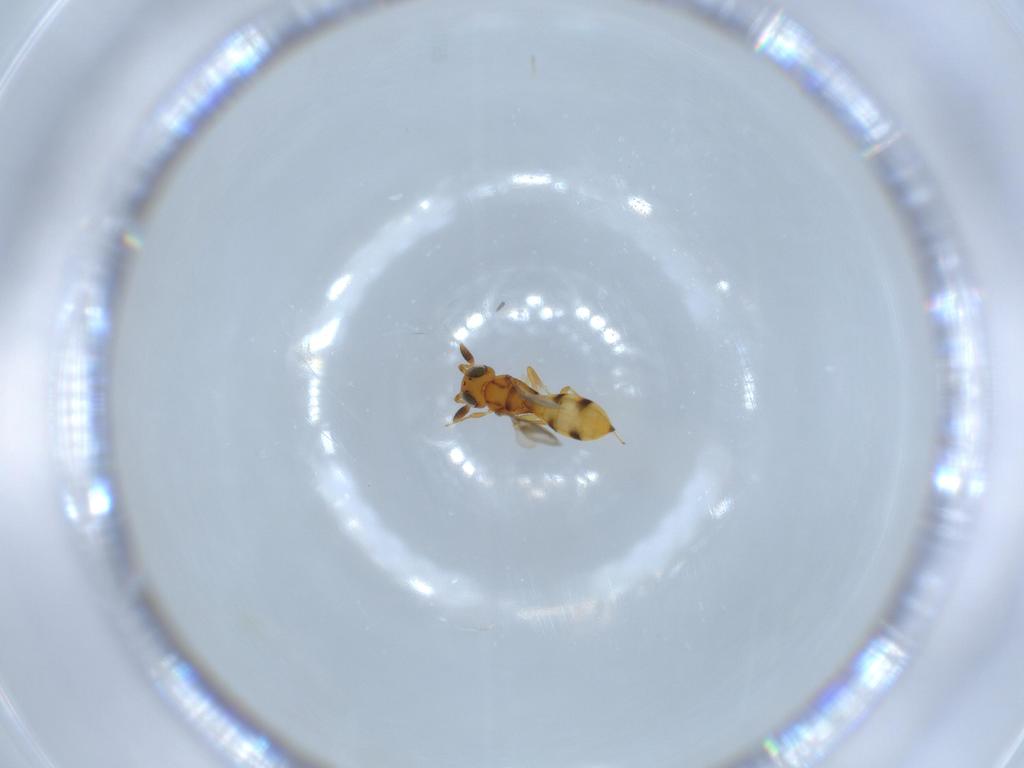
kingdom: Animalia
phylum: Arthropoda
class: Insecta
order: Hymenoptera
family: Scelionidae
